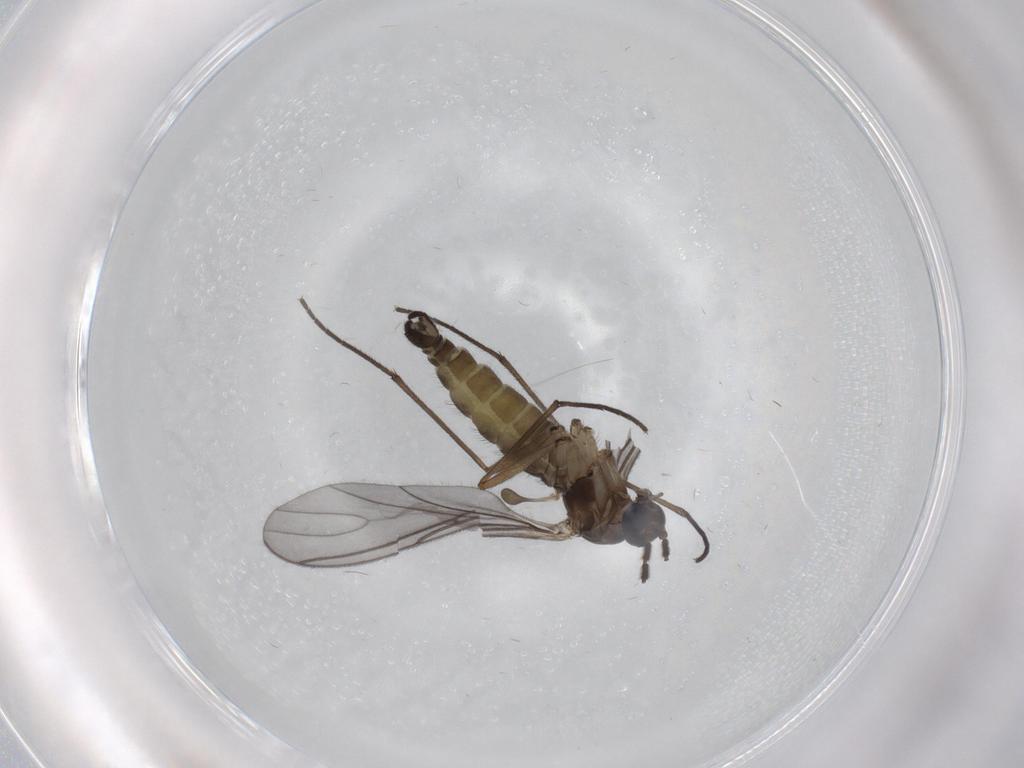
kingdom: Animalia
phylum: Arthropoda
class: Insecta
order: Diptera
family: Sciaridae
